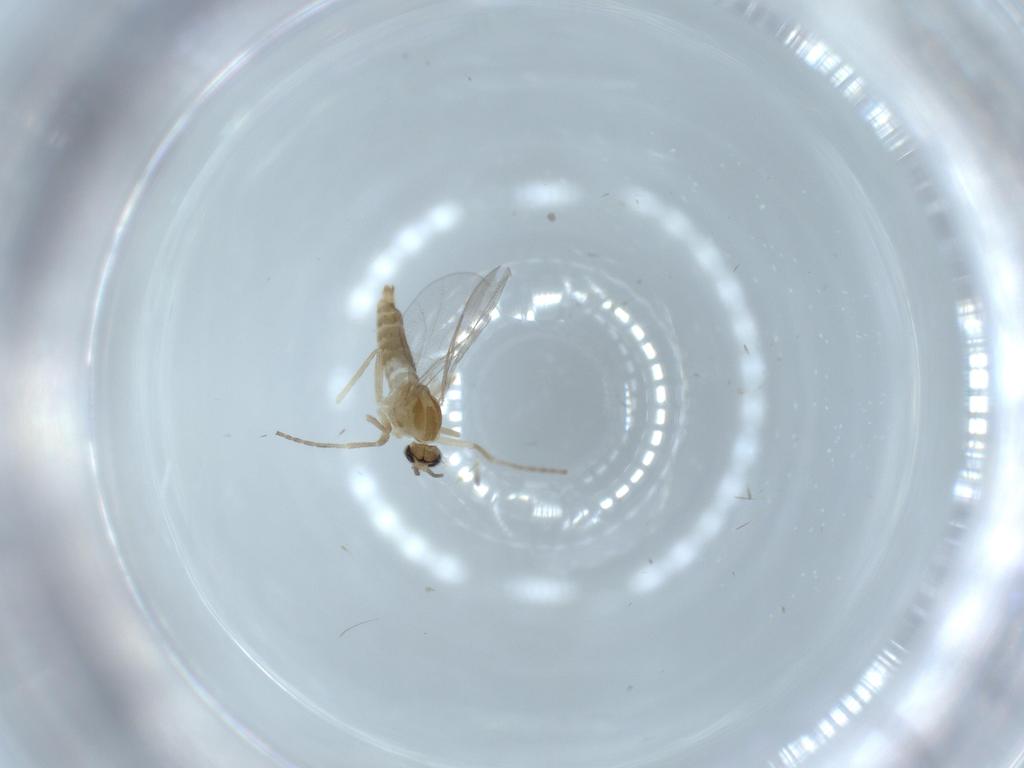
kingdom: Animalia
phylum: Arthropoda
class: Insecta
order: Diptera
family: Cecidomyiidae
